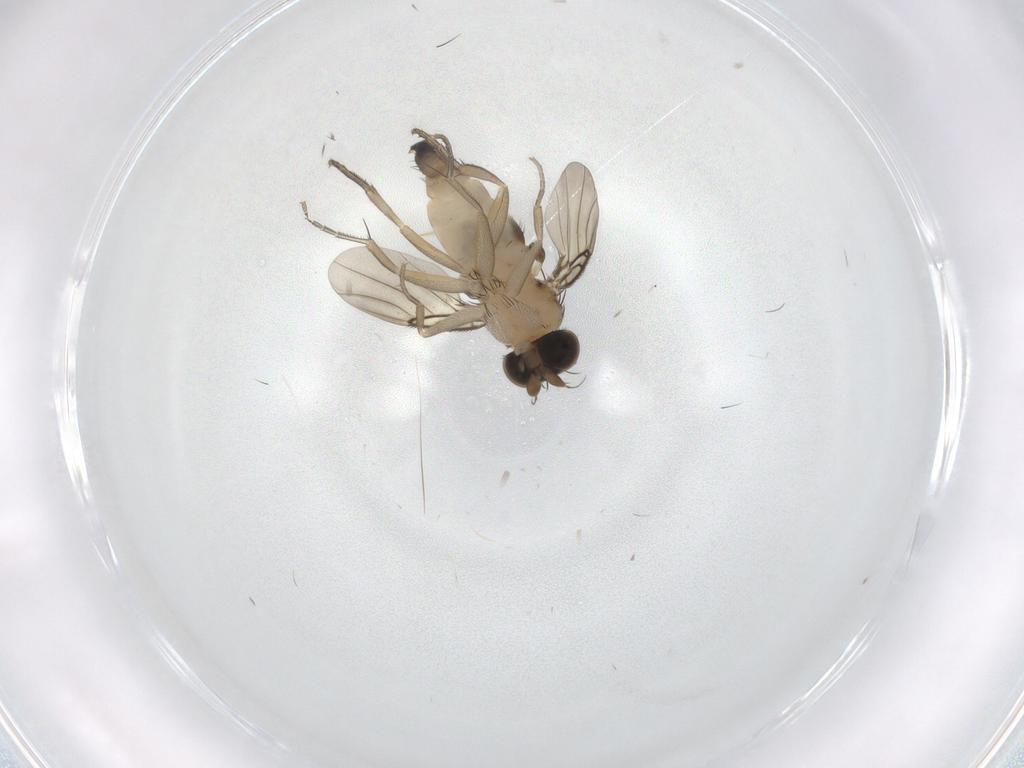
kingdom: Animalia
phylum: Arthropoda
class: Insecta
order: Diptera
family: Phoridae
